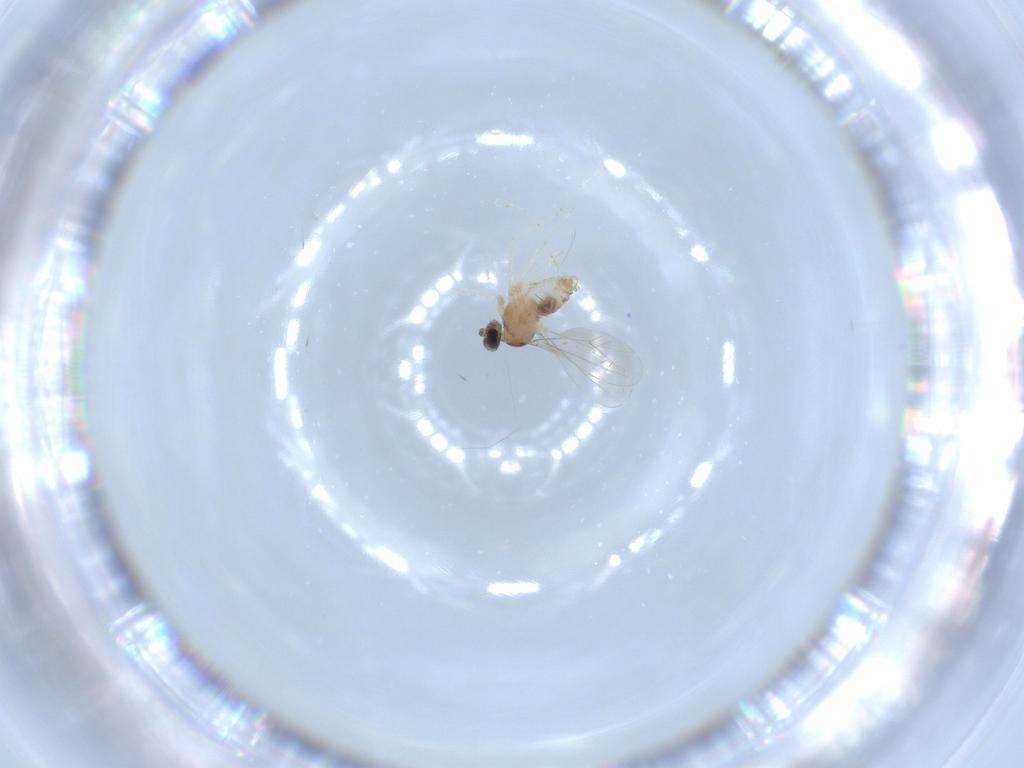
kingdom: Animalia
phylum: Arthropoda
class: Insecta
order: Diptera
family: Cecidomyiidae
